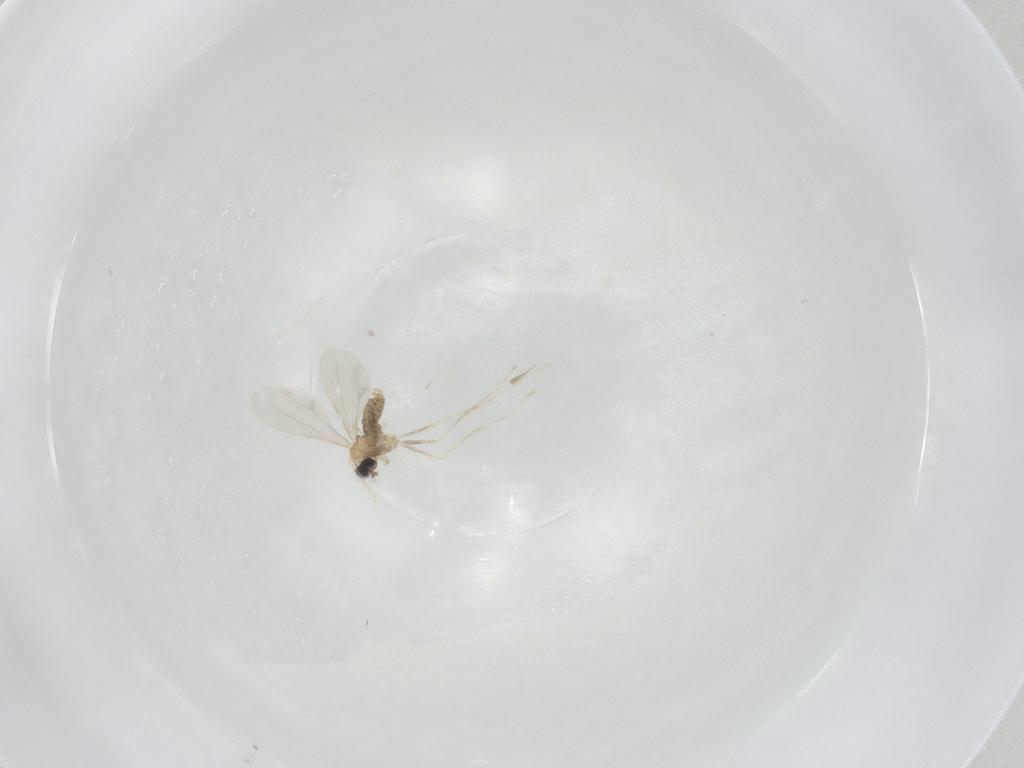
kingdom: Animalia
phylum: Arthropoda
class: Insecta
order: Diptera
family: Cecidomyiidae
